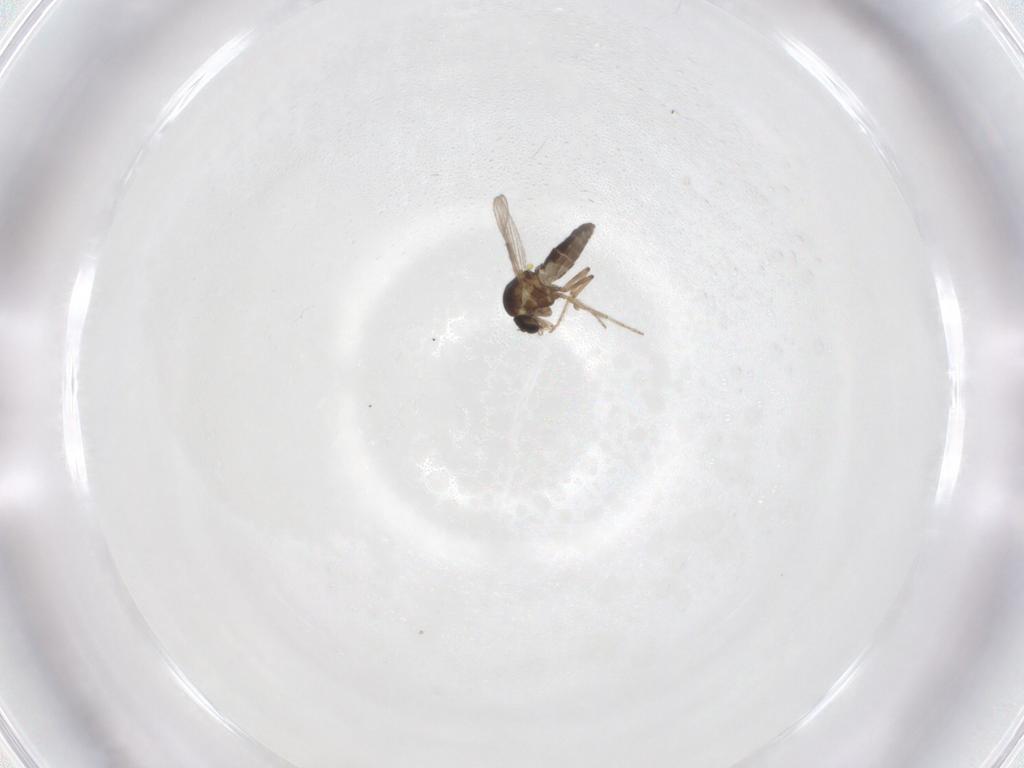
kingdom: Animalia
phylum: Arthropoda
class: Insecta
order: Diptera
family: Ceratopogonidae
